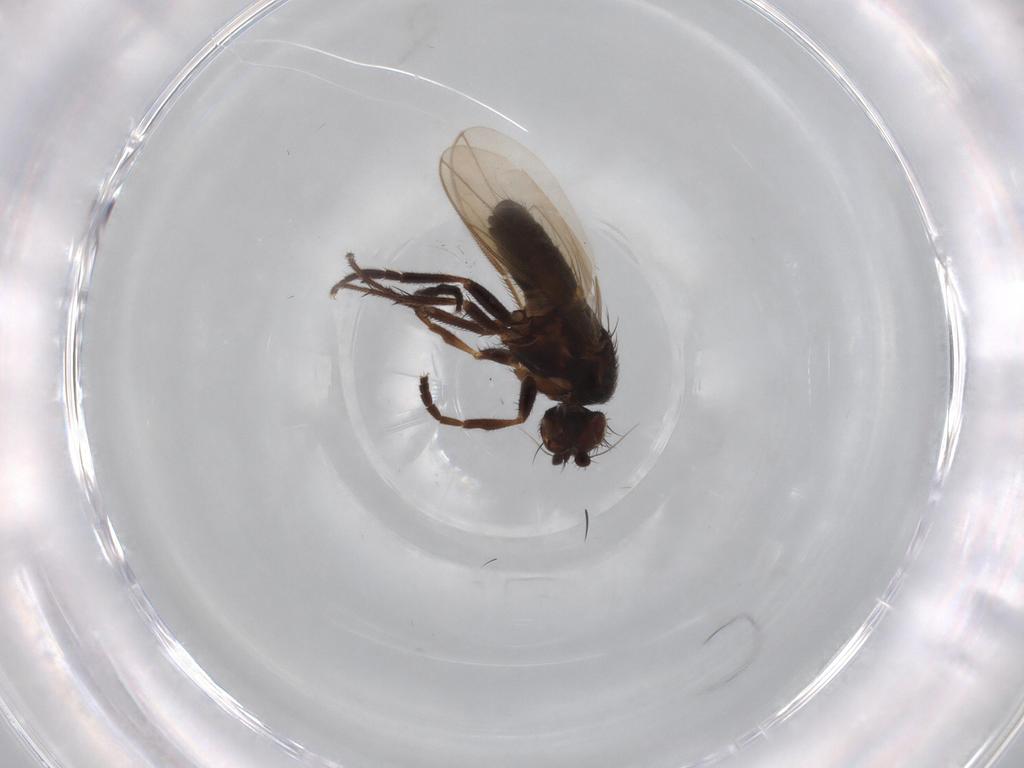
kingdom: Animalia
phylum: Arthropoda
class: Insecta
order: Diptera
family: Sphaeroceridae
